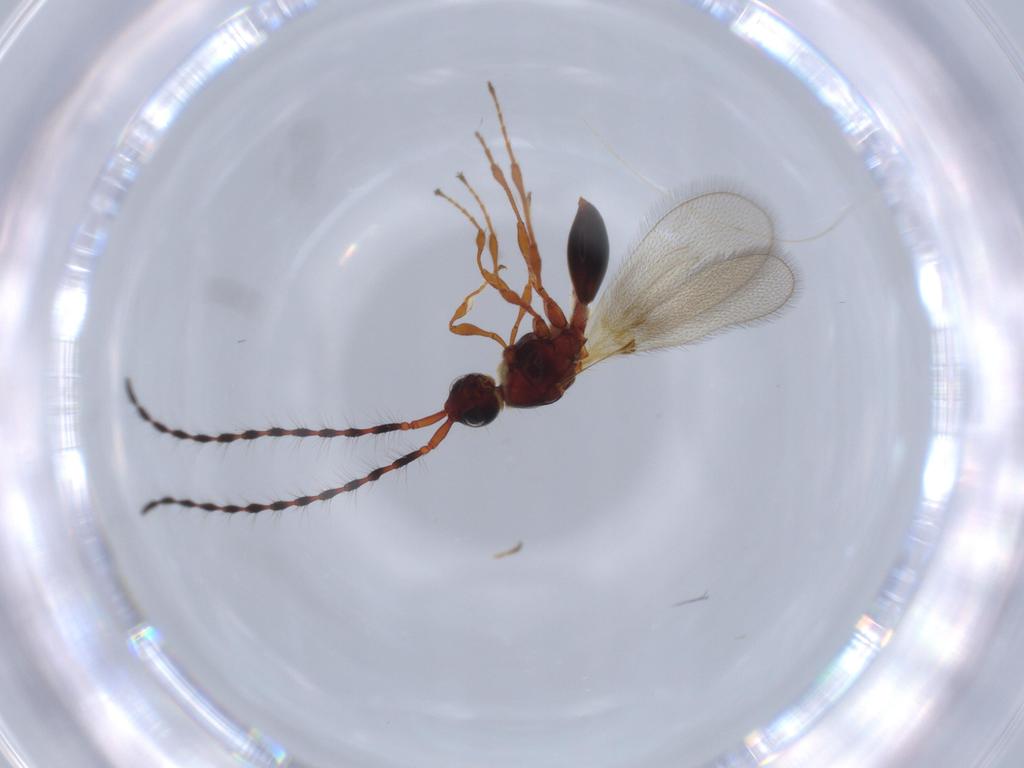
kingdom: Animalia
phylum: Arthropoda
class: Insecta
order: Hymenoptera
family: Diapriidae
